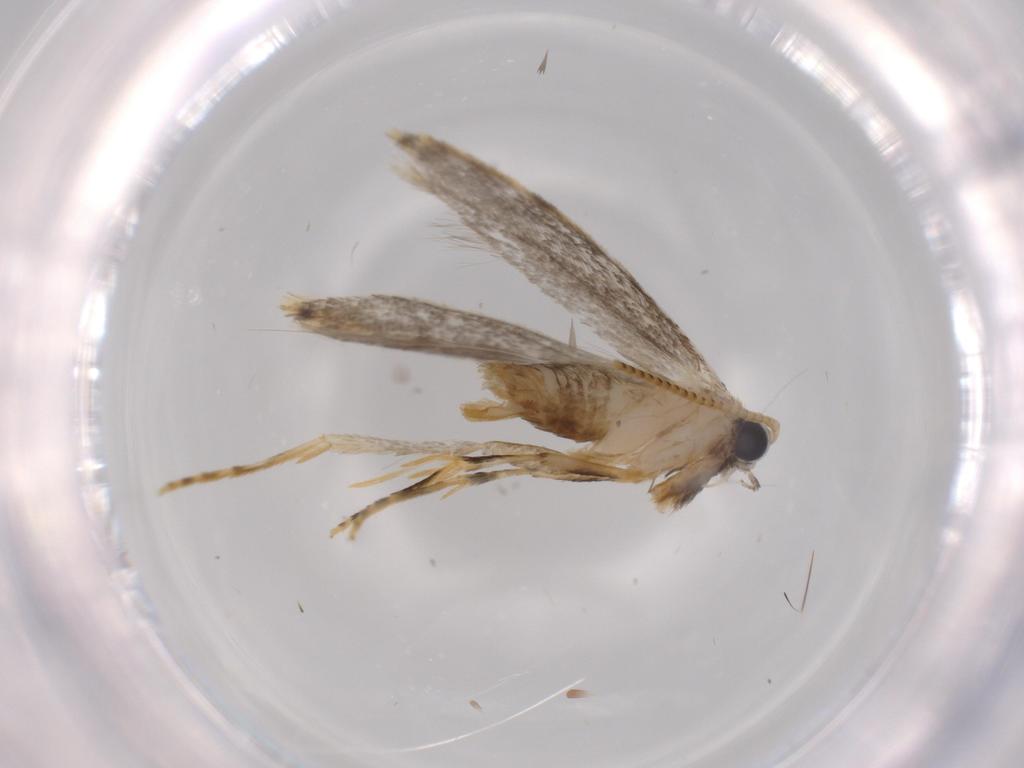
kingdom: Animalia
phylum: Arthropoda
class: Insecta
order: Lepidoptera
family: Tineidae
